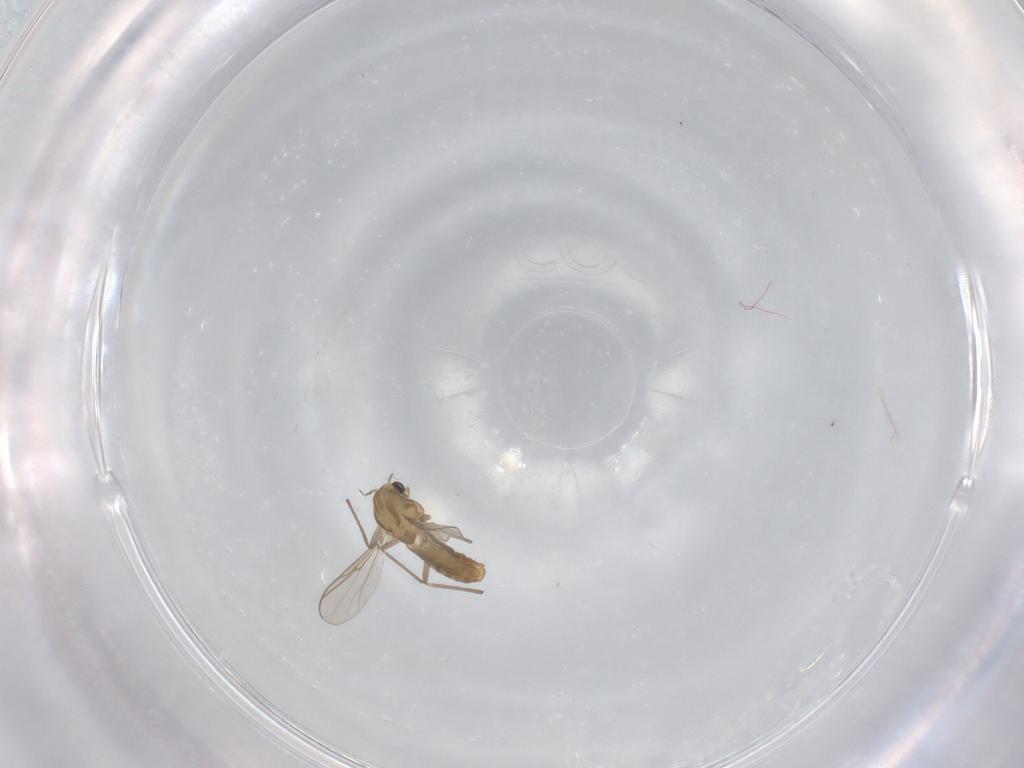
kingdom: Animalia
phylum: Arthropoda
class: Insecta
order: Diptera
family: Chironomidae
